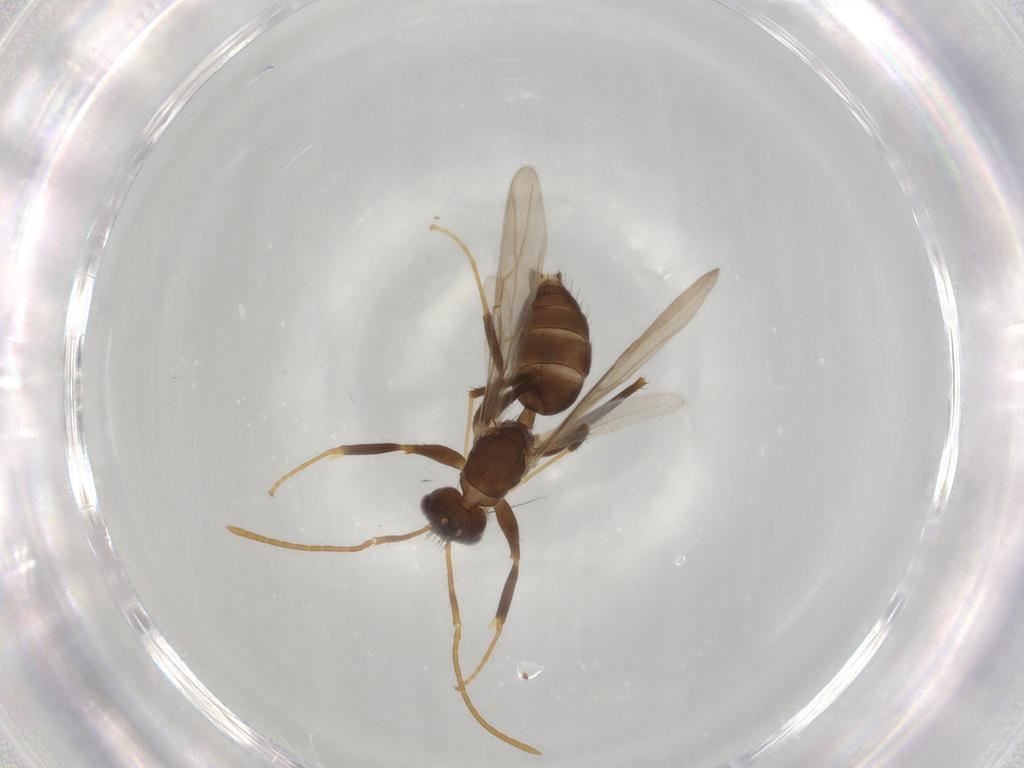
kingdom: Animalia
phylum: Arthropoda
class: Insecta
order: Hymenoptera
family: Formicidae
